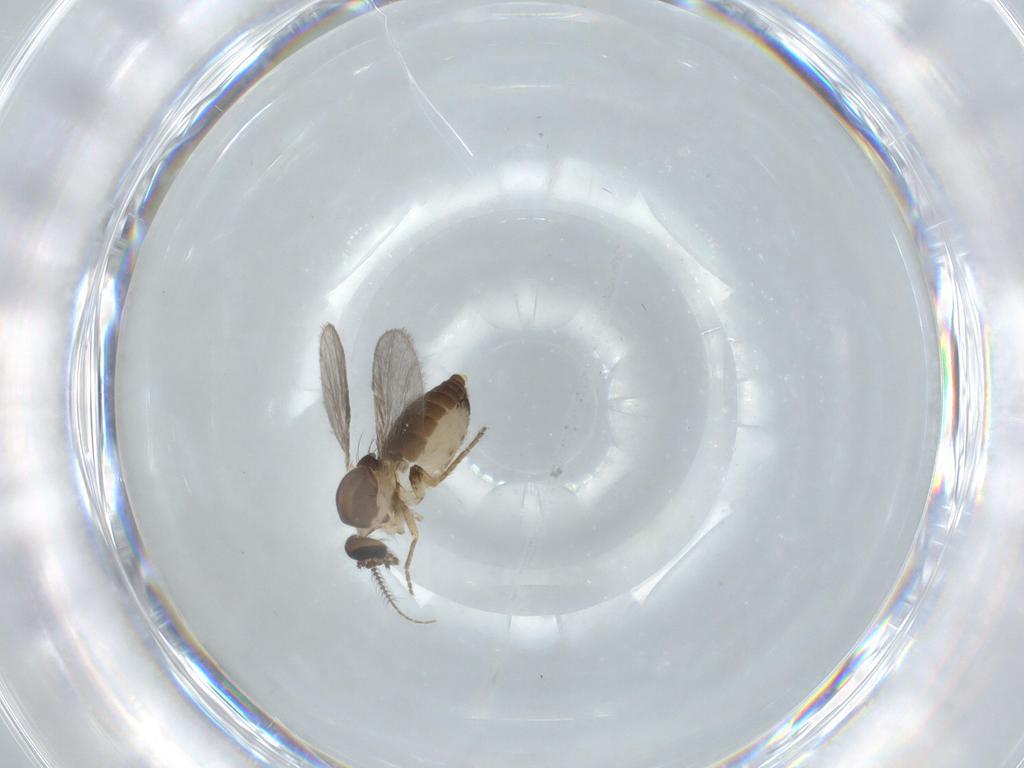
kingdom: Animalia
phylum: Arthropoda
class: Insecta
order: Diptera
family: Ceratopogonidae
